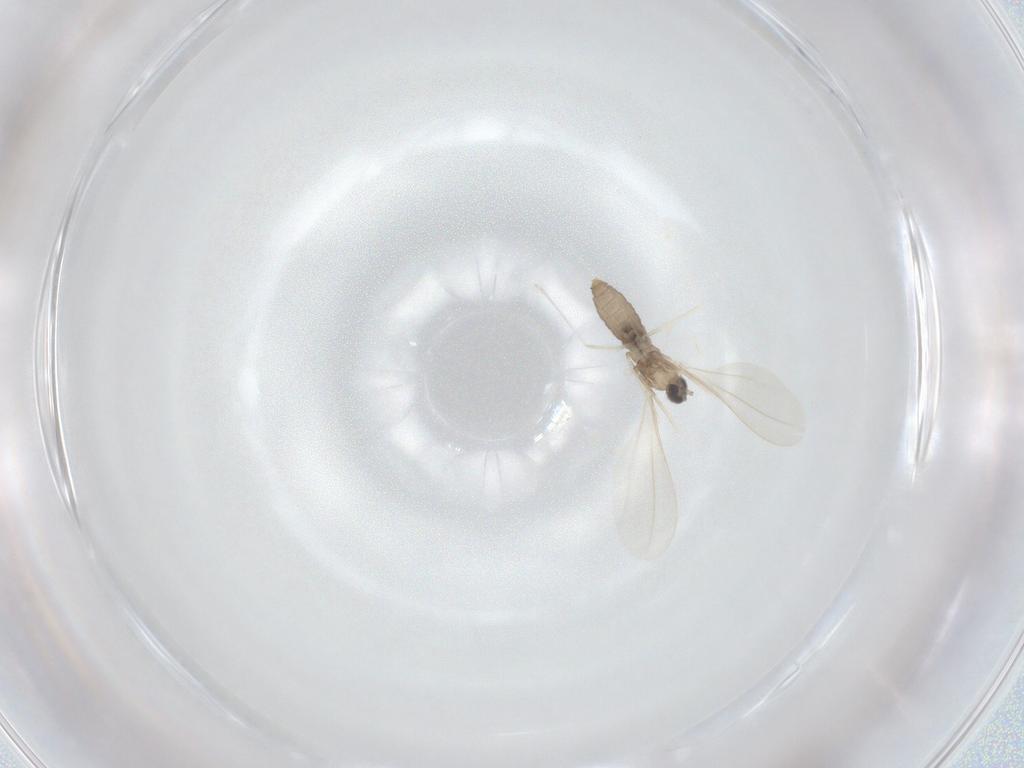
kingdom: Animalia
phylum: Arthropoda
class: Insecta
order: Diptera
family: Cecidomyiidae
